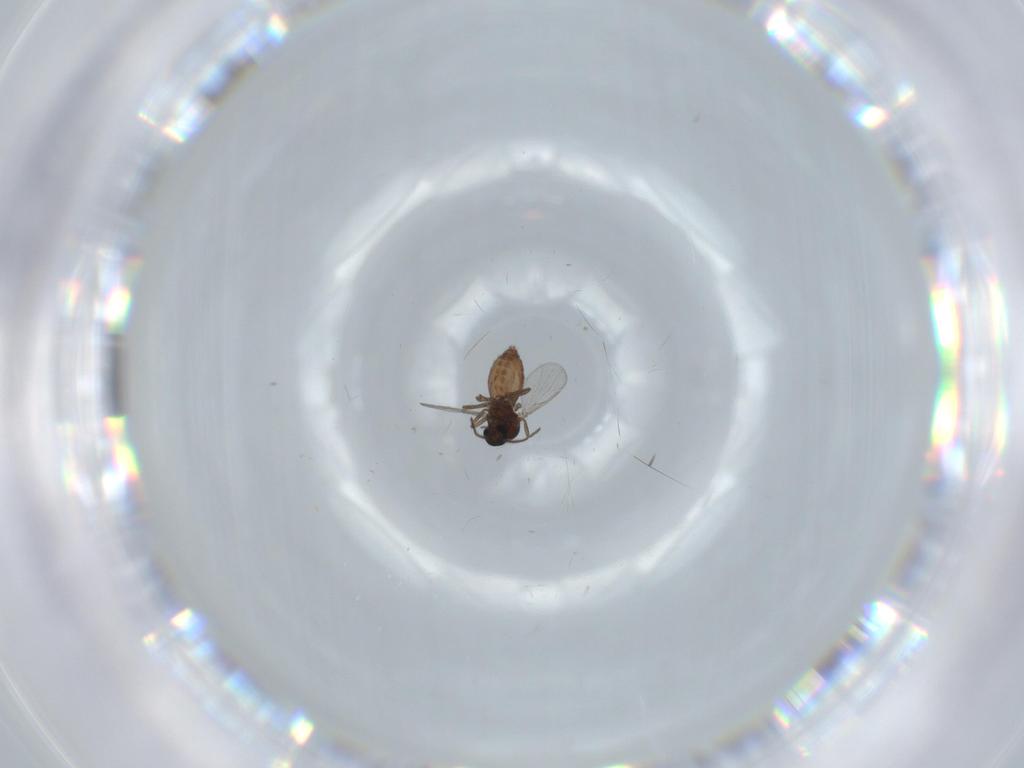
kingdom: Animalia
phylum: Arthropoda
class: Insecta
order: Diptera
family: Ceratopogonidae
